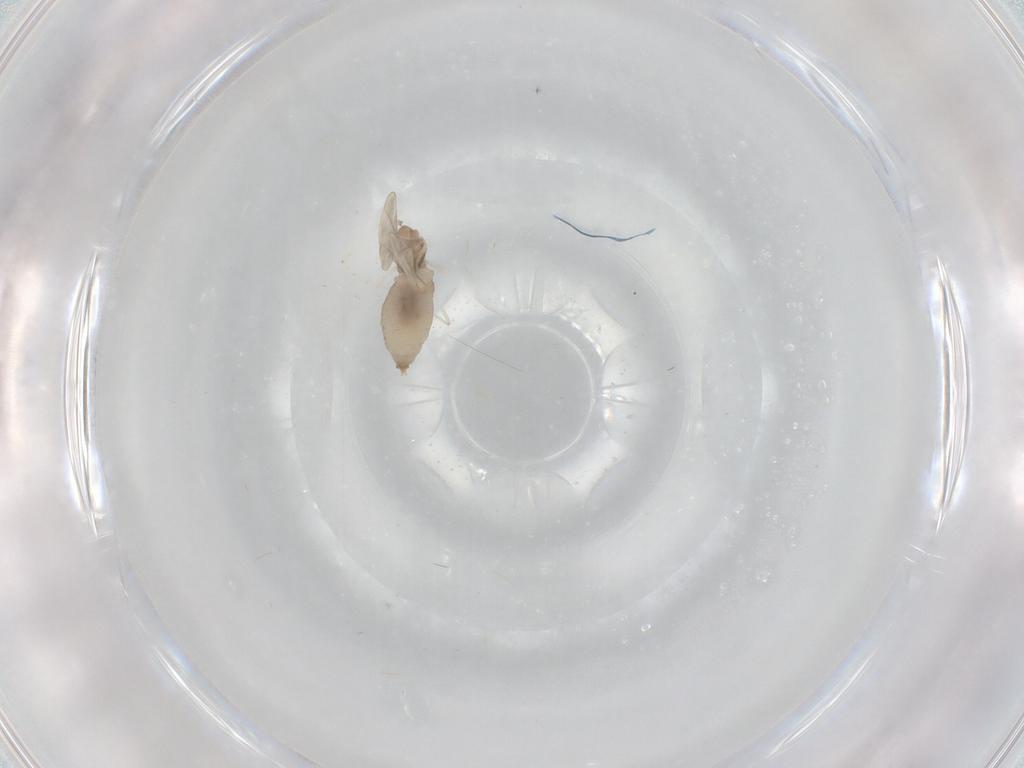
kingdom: Animalia
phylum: Arthropoda
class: Insecta
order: Diptera
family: Cecidomyiidae
